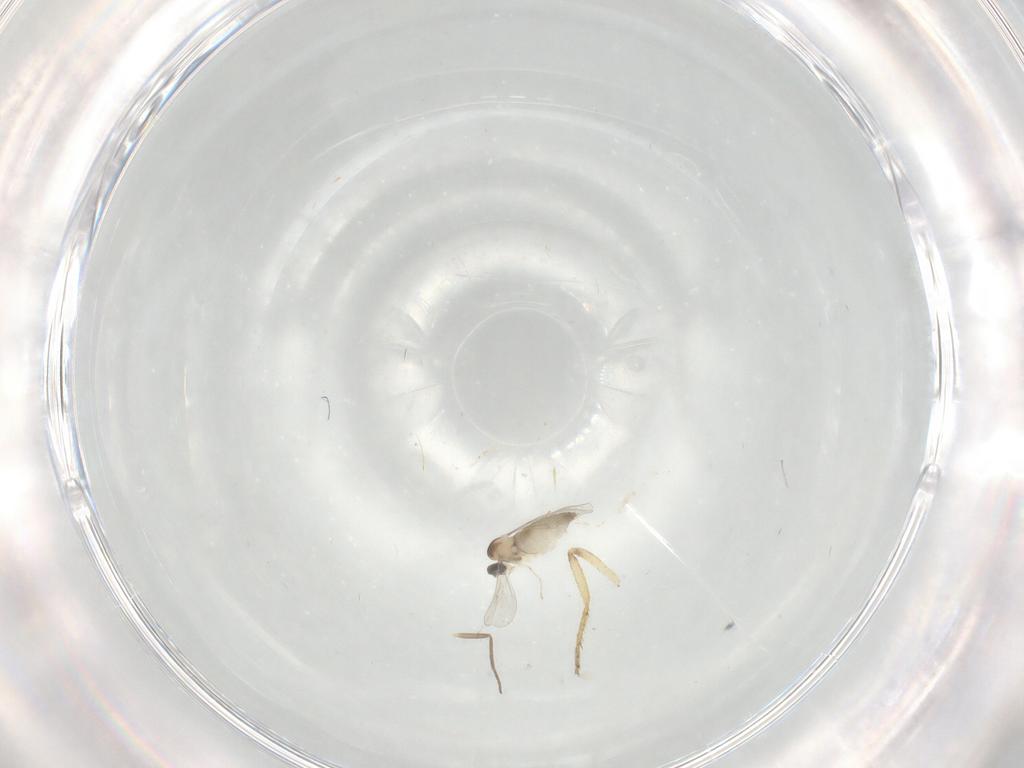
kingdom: Animalia
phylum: Arthropoda
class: Insecta
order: Diptera
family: Ceratopogonidae
